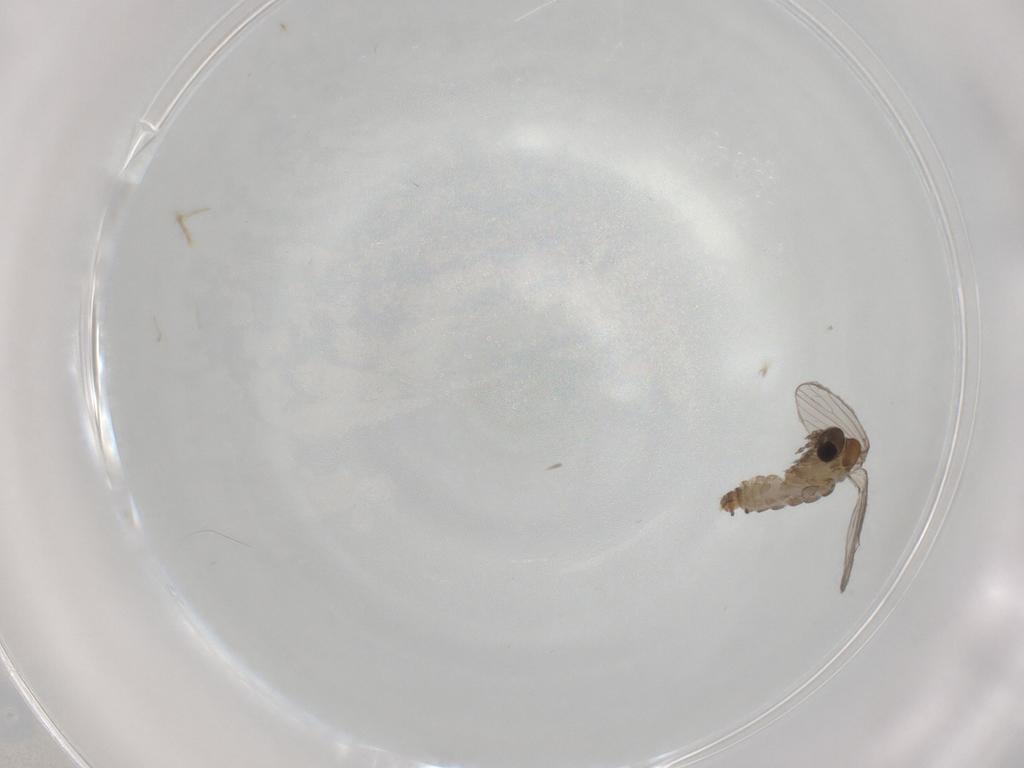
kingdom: Animalia
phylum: Arthropoda
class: Insecta
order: Diptera
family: Psychodidae
